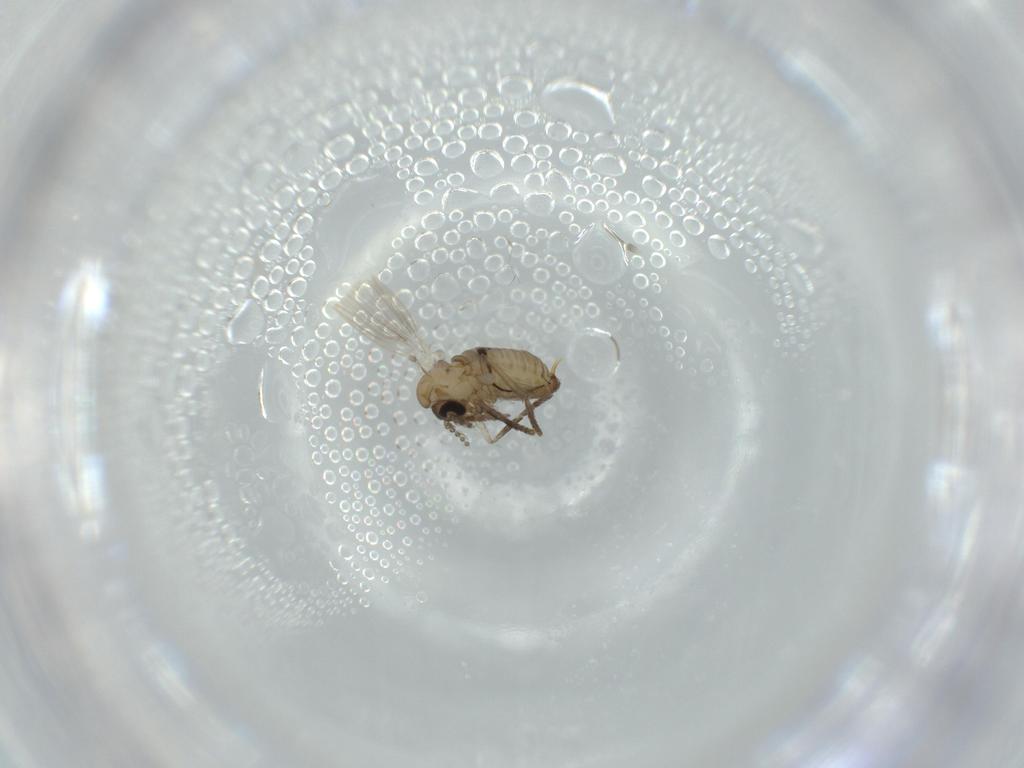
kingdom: Animalia
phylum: Arthropoda
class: Insecta
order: Diptera
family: Psychodidae
